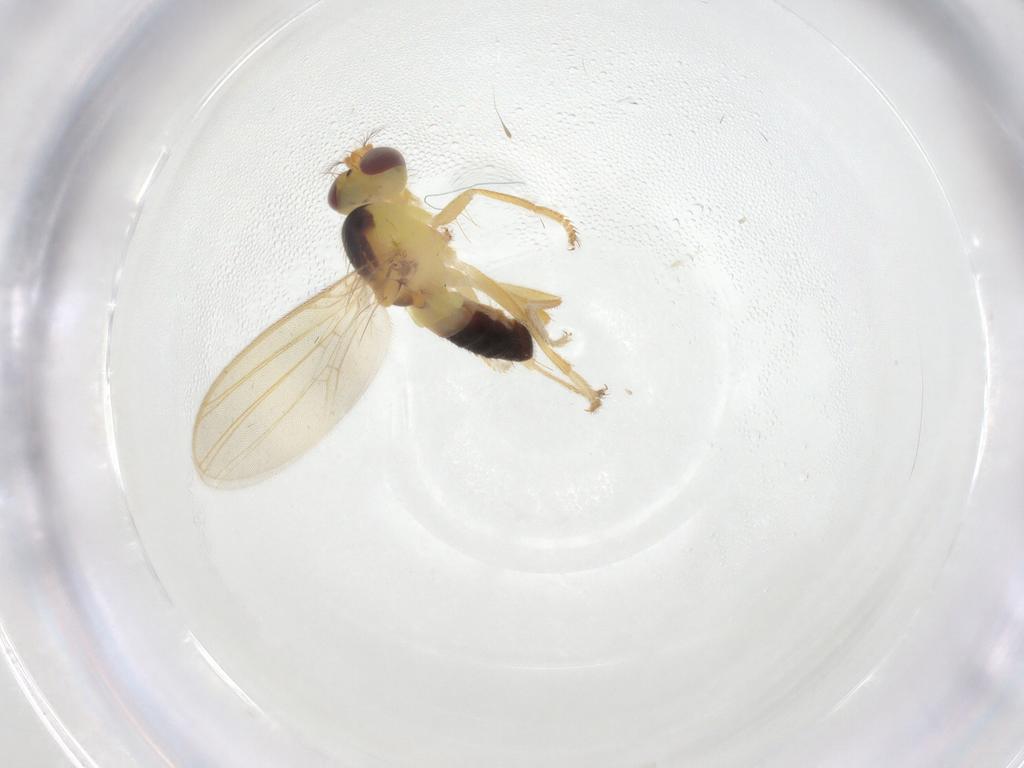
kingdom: Animalia
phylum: Arthropoda
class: Insecta
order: Diptera
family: Periscelididae
